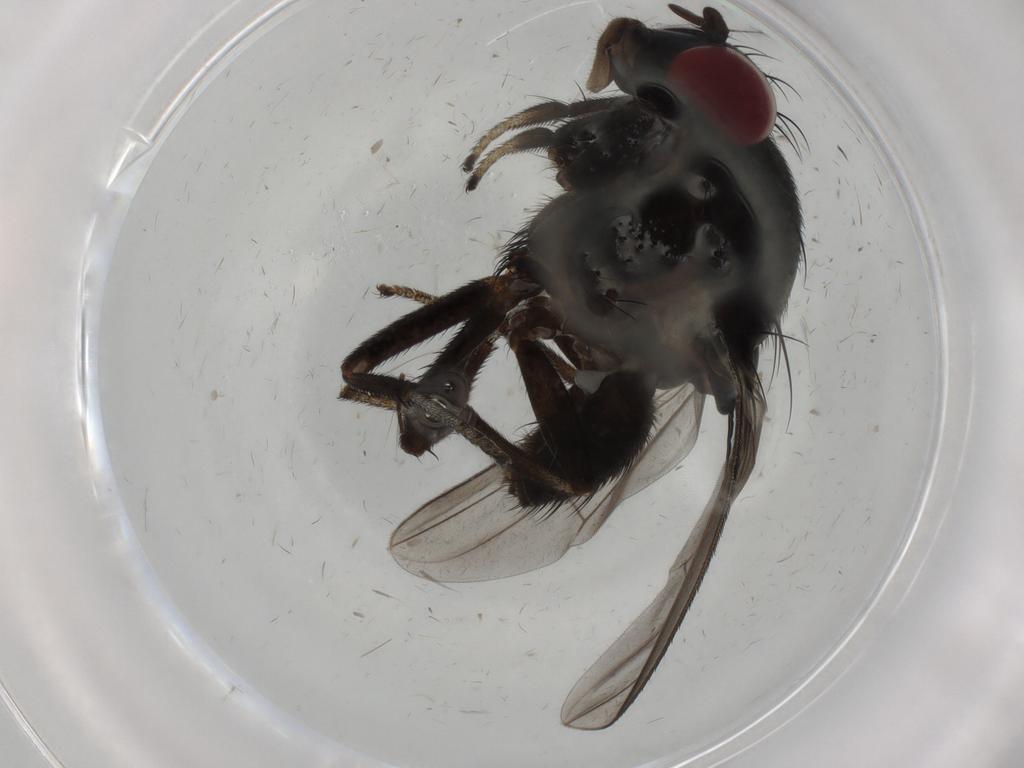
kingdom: Animalia
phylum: Arthropoda
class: Insecta
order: Diptera
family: Lauxaniidae
